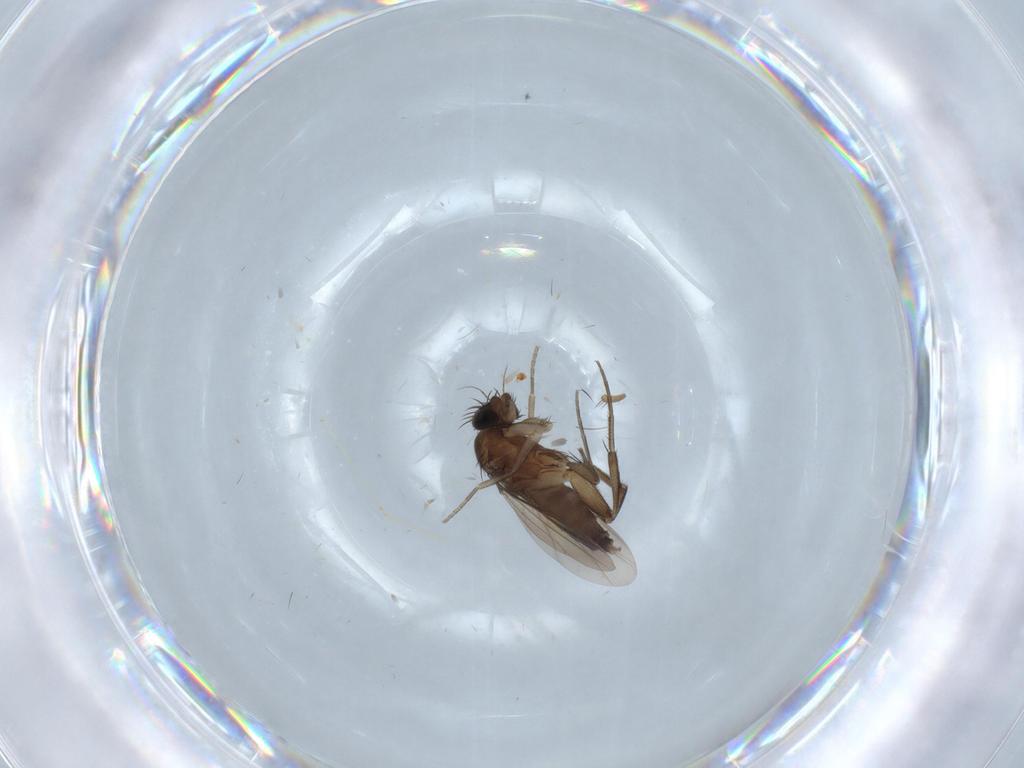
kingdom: Animalia
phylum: Arthropoda
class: Insecta
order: Diptera
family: Phoridae
